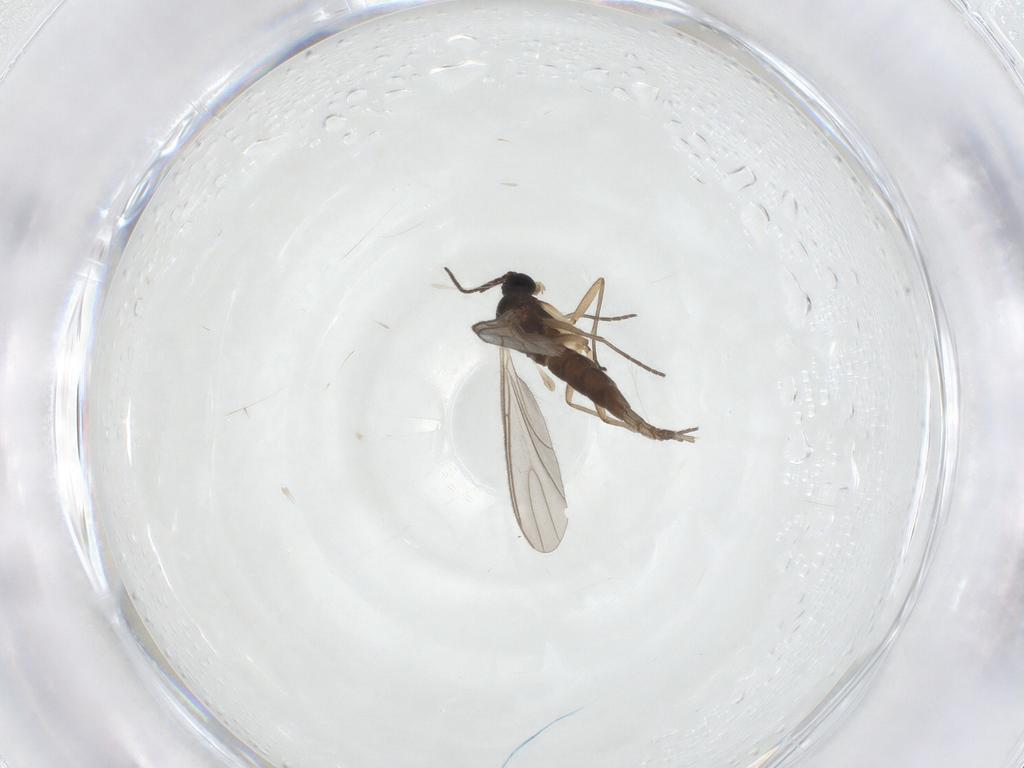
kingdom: Animalia
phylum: Arthropoda
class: Insecta
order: Diptera
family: Sciaridae
